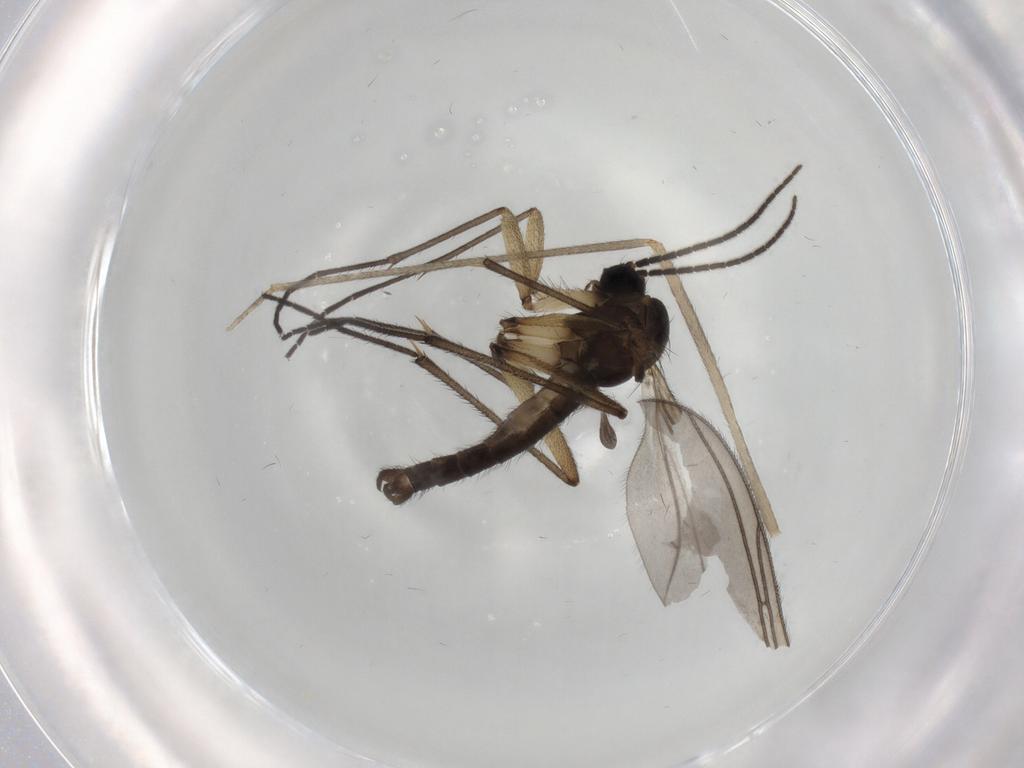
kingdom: Animalia
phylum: Arthropoda
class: Insecta
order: Diptera
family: Sciaridae
